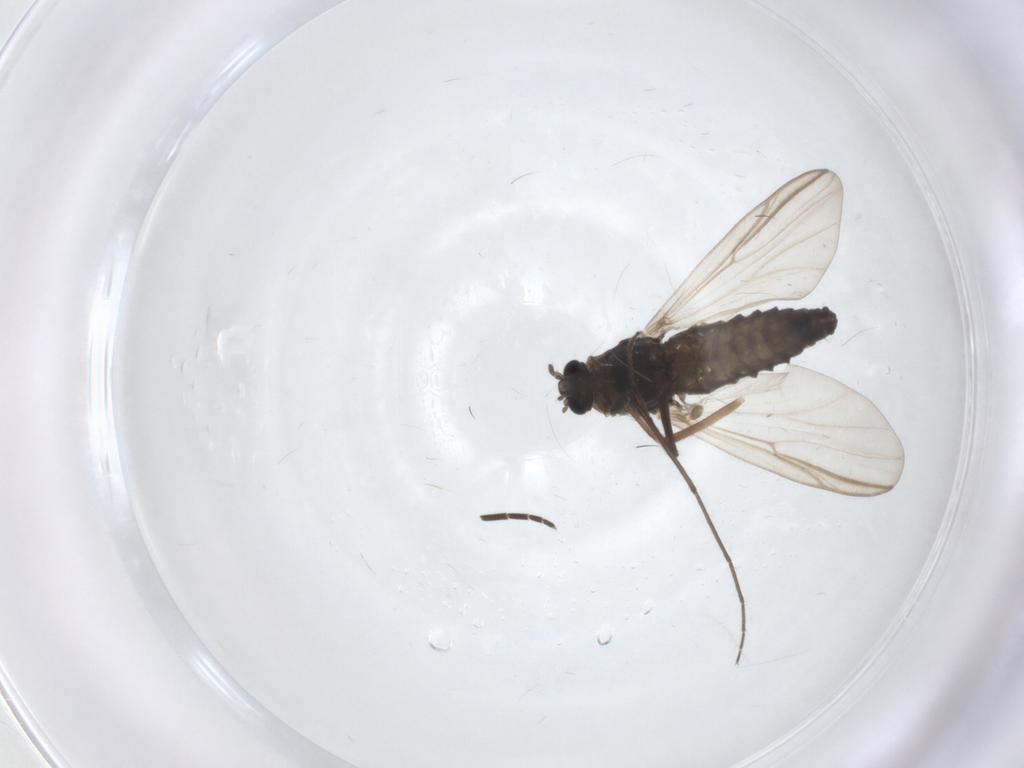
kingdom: Animalia
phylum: Arthropoda
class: Insecta
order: Diptera
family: Chironomidae
